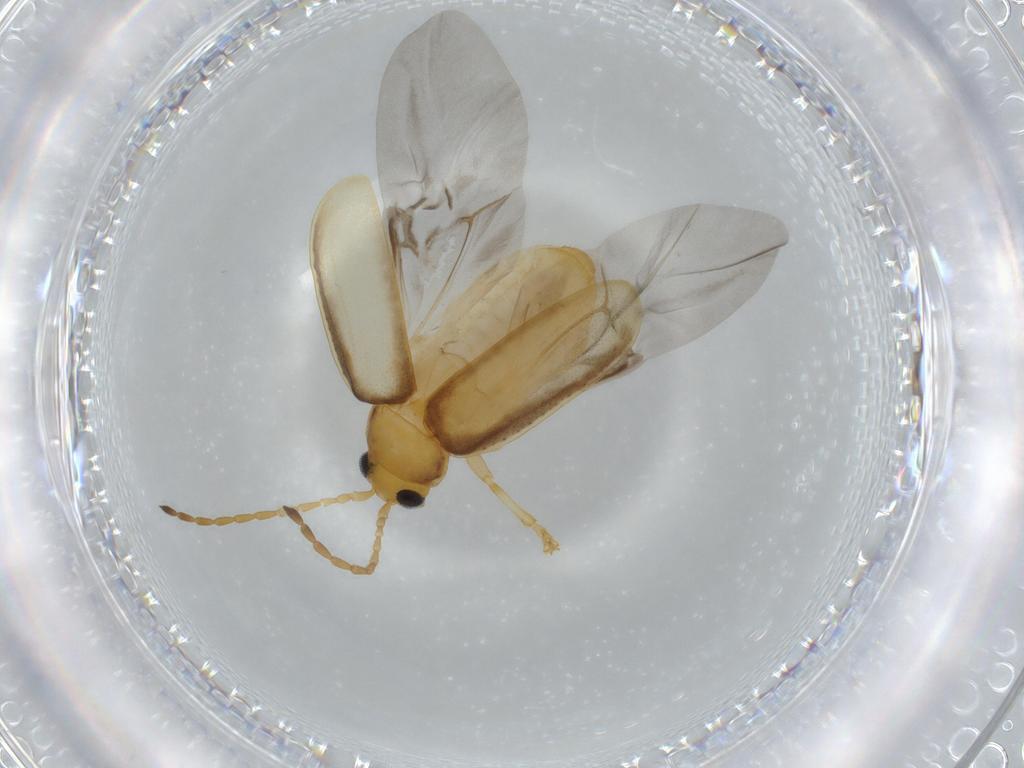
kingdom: Animalia
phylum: Arthropoda
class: Insecta
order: Coleoptera
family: Chrysomelidae
